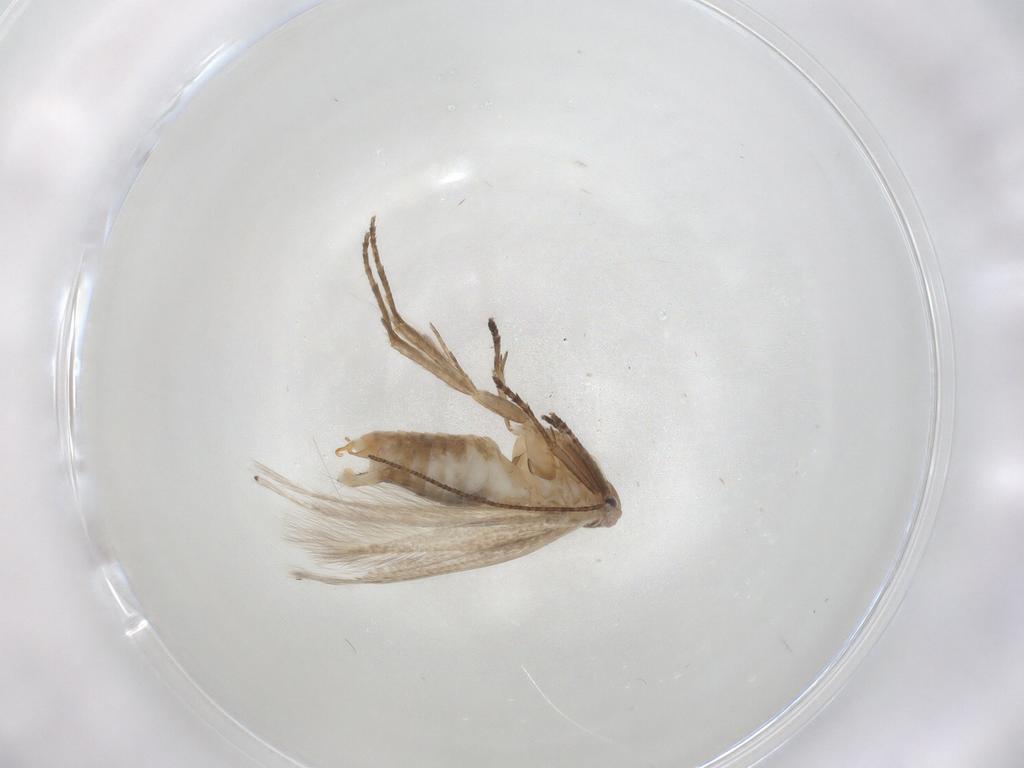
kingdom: Animalia
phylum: Arthropoda
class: Insecta
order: Lepidoptera
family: Bucculatricidae
